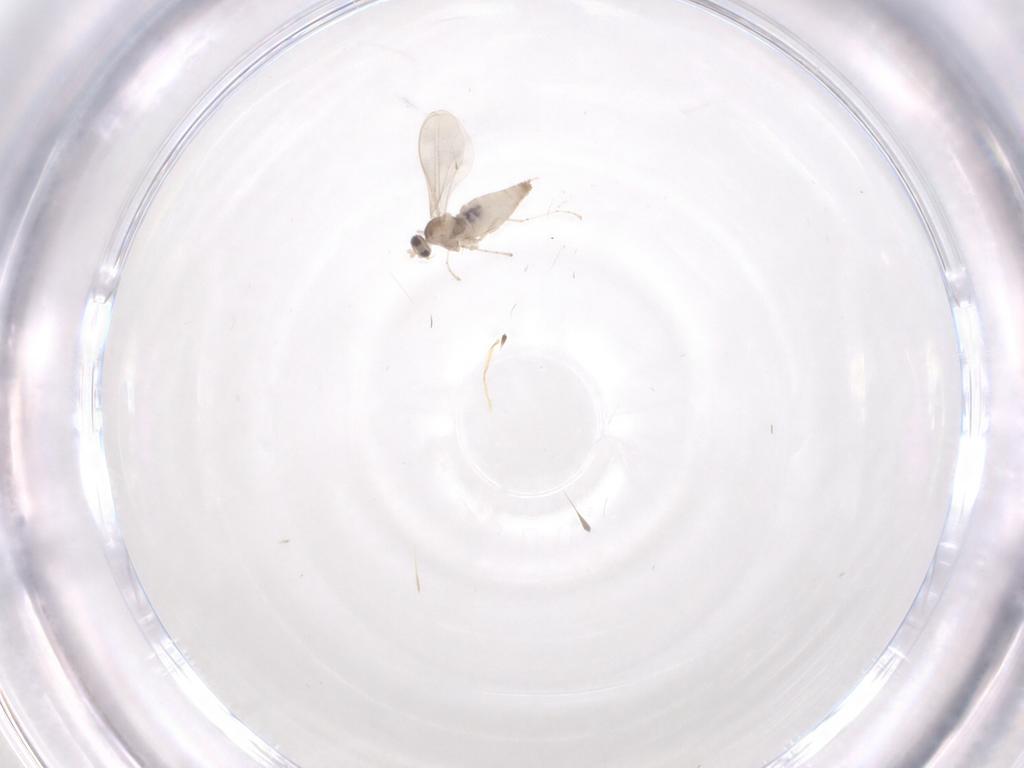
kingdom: Animalia
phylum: Arthropoda
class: Insecta
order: Diptera
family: Cecidomyiidae
